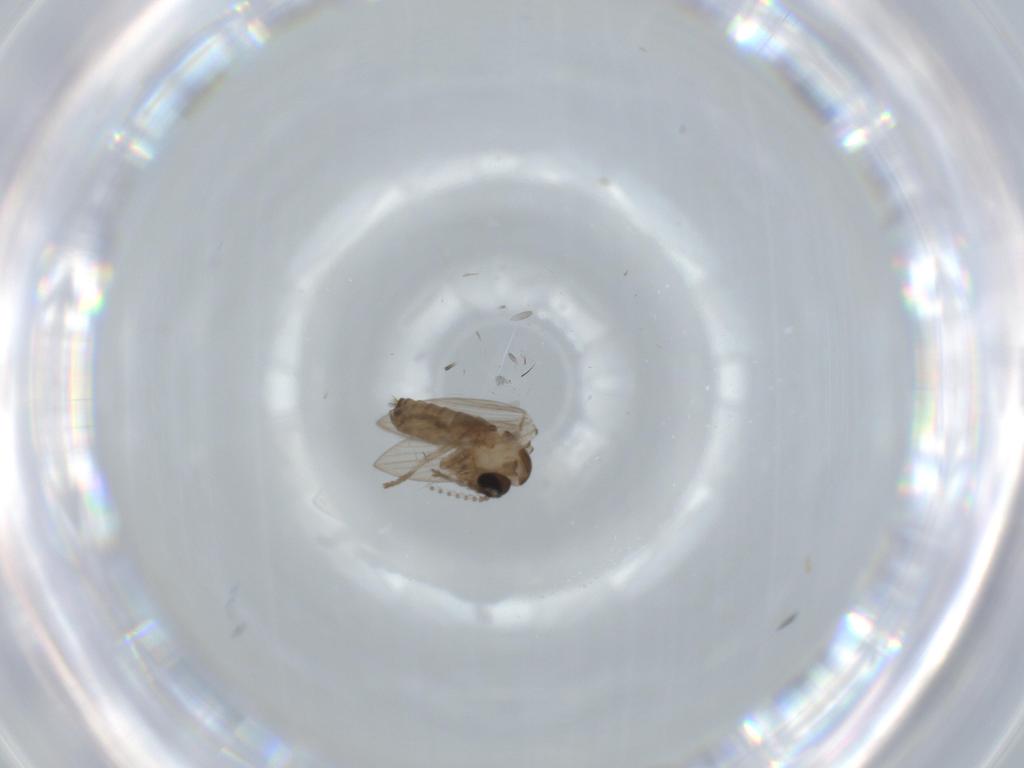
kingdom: Animalia
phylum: Arthropoda
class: Insecta
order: Diptera
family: Psychodidae
